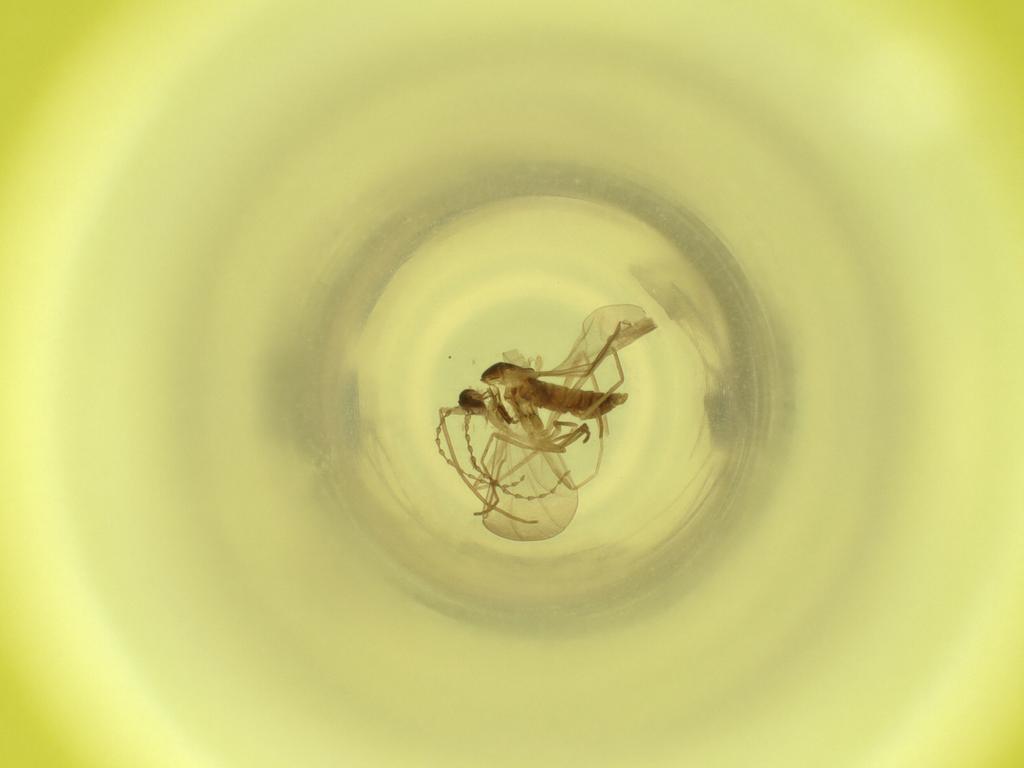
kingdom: Animalia
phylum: Arthropoda
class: Insecta
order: Diptera
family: Cecidomyiidae
